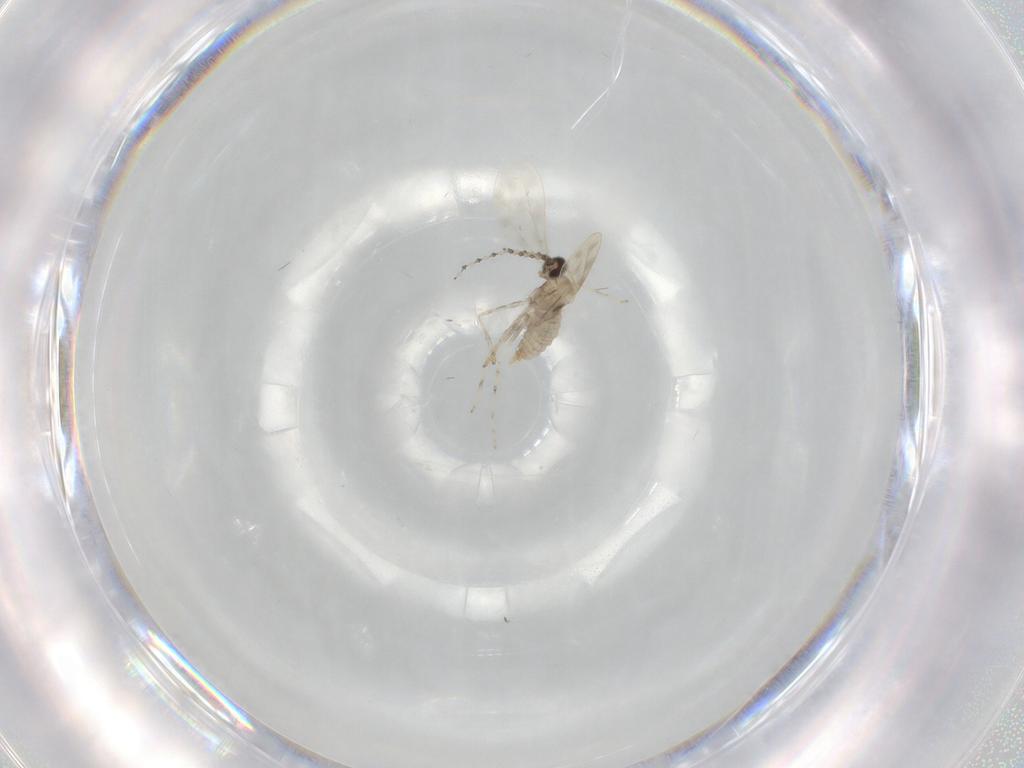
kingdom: Animalia
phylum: Arthropoda
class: Insecta
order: Diptera
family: Cecidomyiidae
